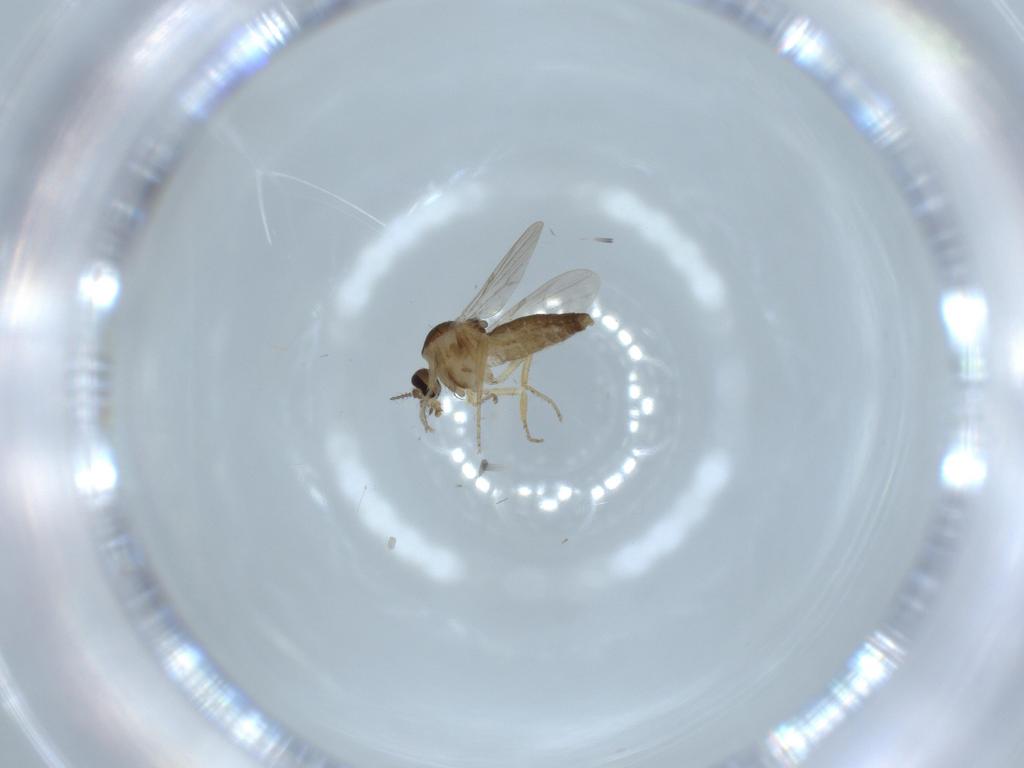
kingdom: Animalia
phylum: Arthropoda
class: Insecta
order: Diptera
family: Ceratopogonidae
